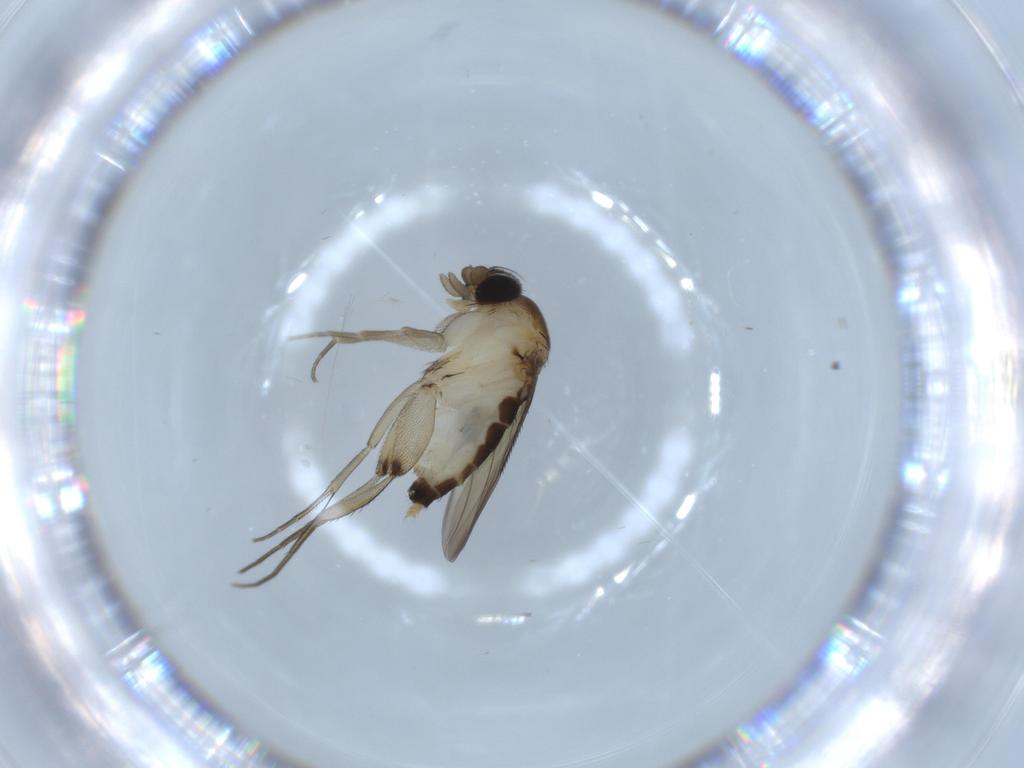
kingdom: Animalia
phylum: Arthropoda
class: Insecta
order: Diptera
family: Phoridae
